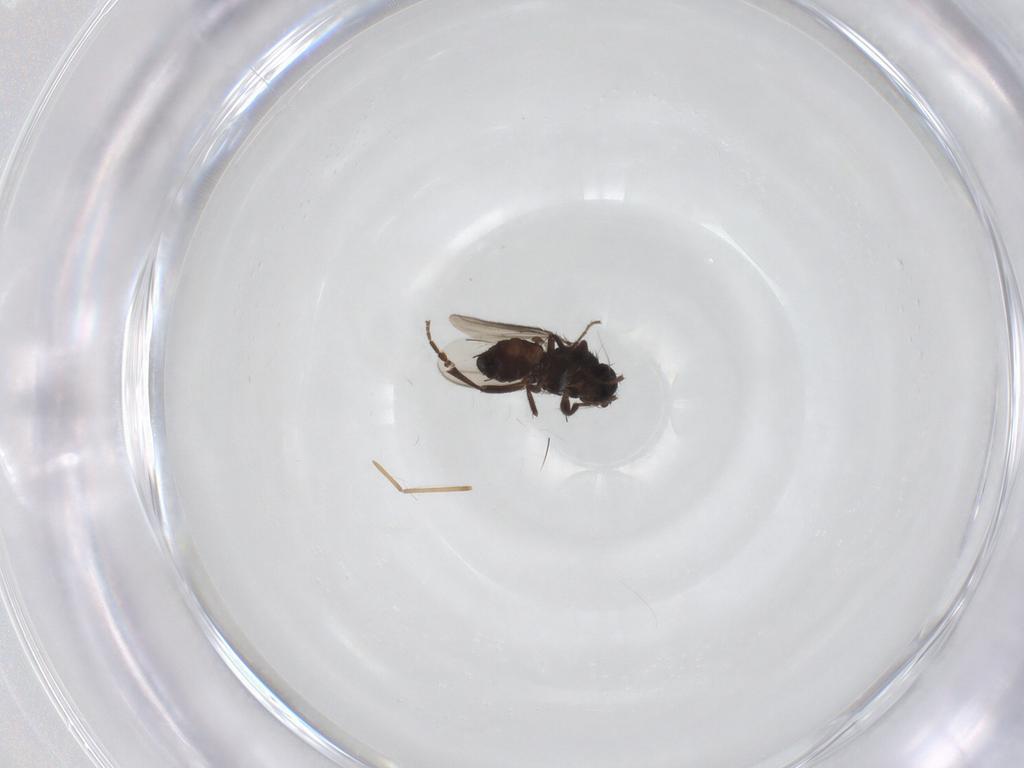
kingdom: Animalia
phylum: Arthropoda
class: Insecta
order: Diptera
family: Sphaeroceridae
